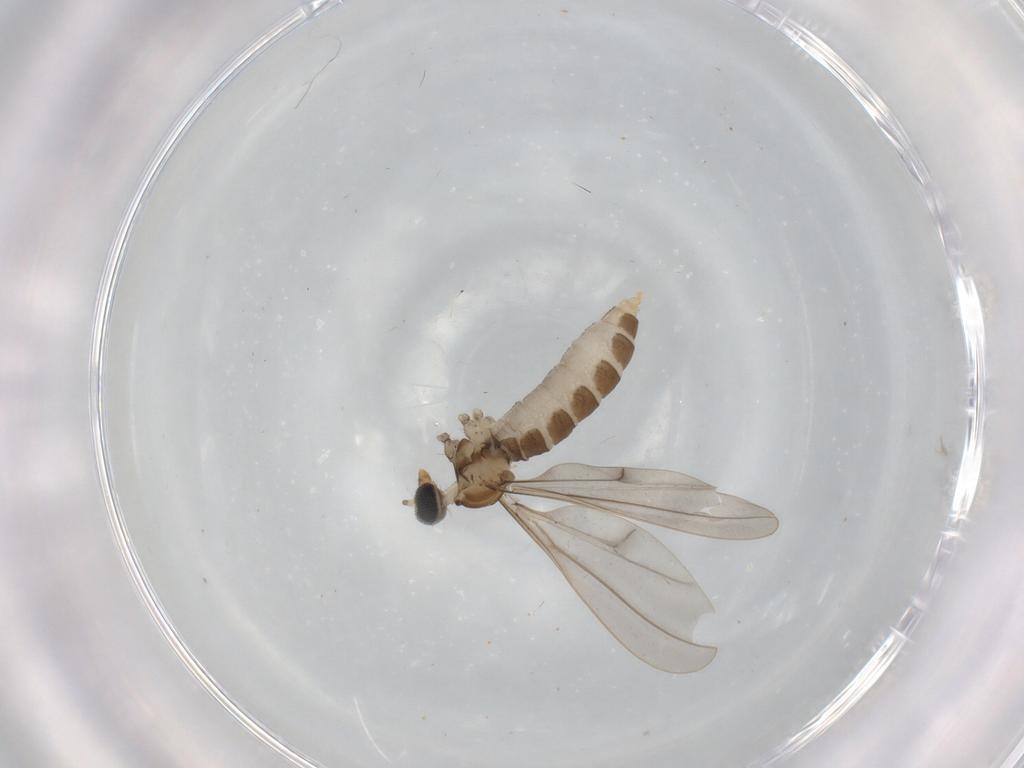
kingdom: Animalia
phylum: Arthropoda
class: Insecta
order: Diptera
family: Cecidomyiidae
